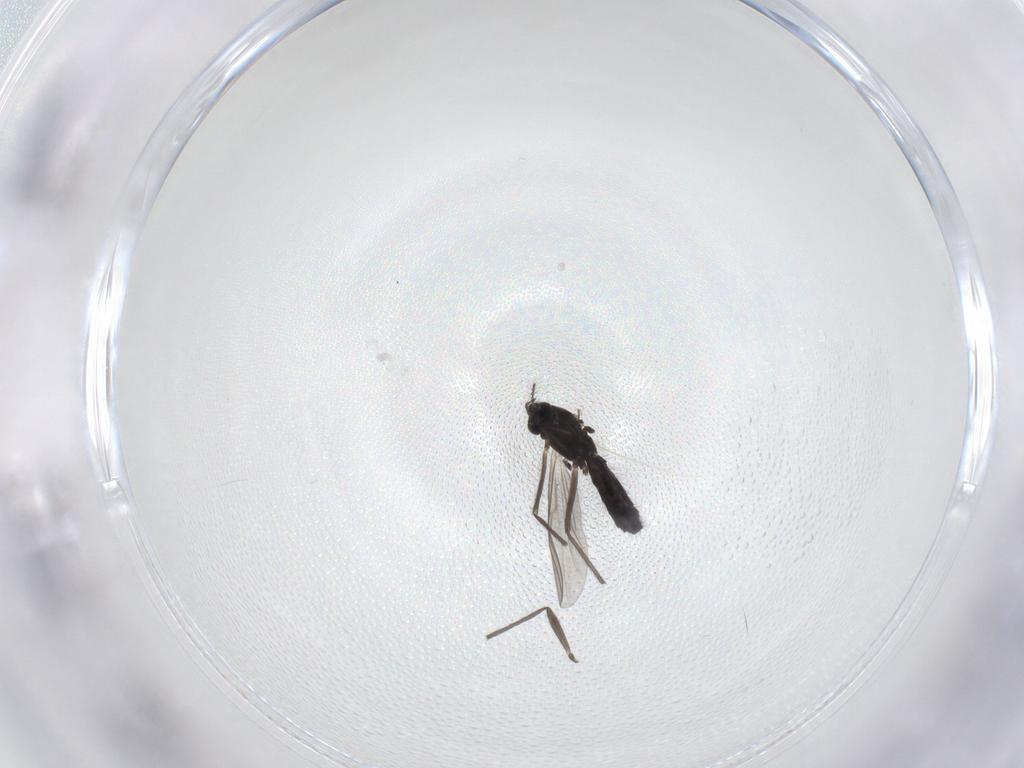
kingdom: Animalia
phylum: Arthropoda
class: Insecta
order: Diptera
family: Chironomidae
